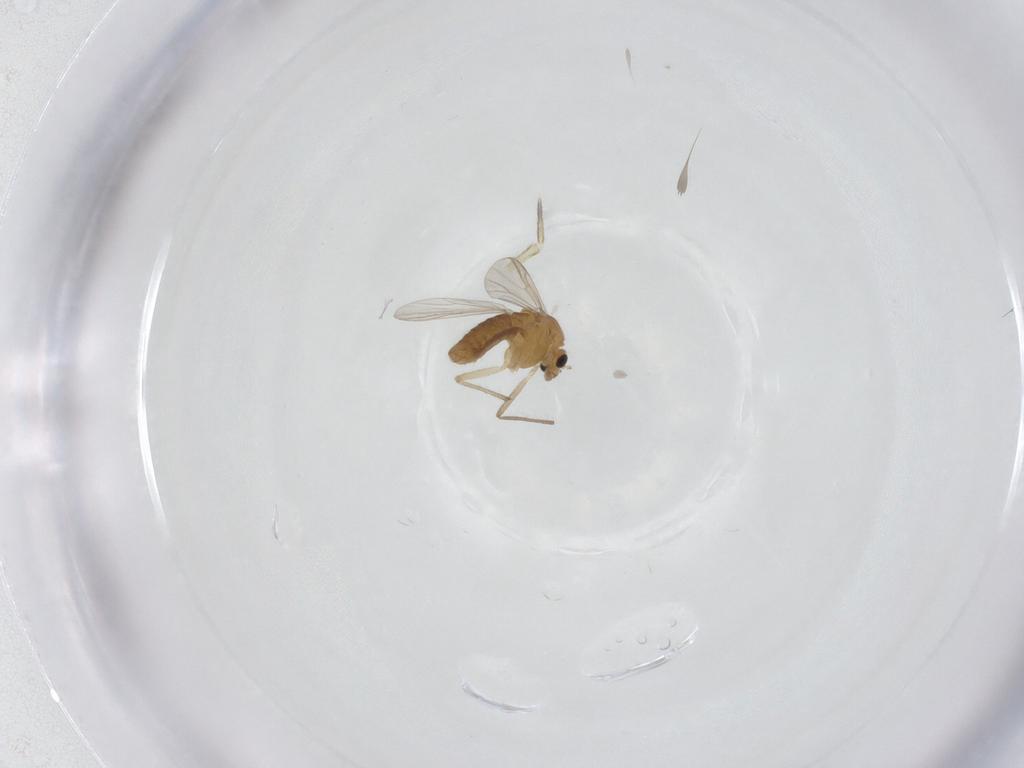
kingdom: Animalia
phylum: Arthropoda
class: Insecta
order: Diptera
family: Chironomidae
